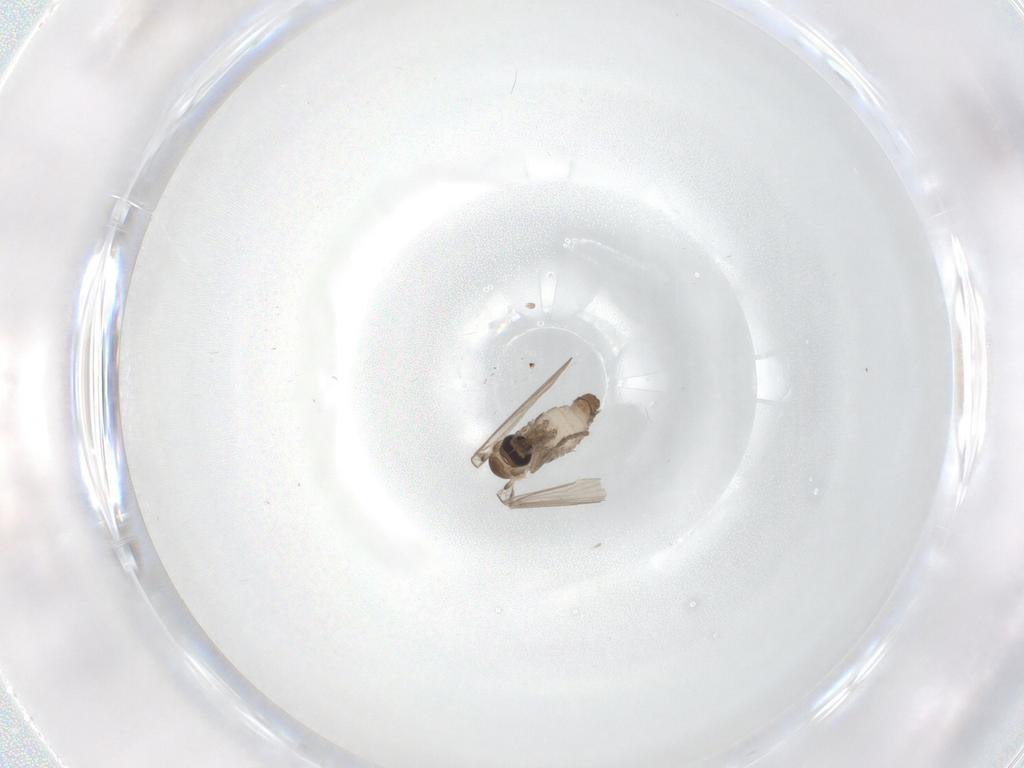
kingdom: Animalia
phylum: Arthropoda
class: Insecta
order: Diptera
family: Psychodidae
